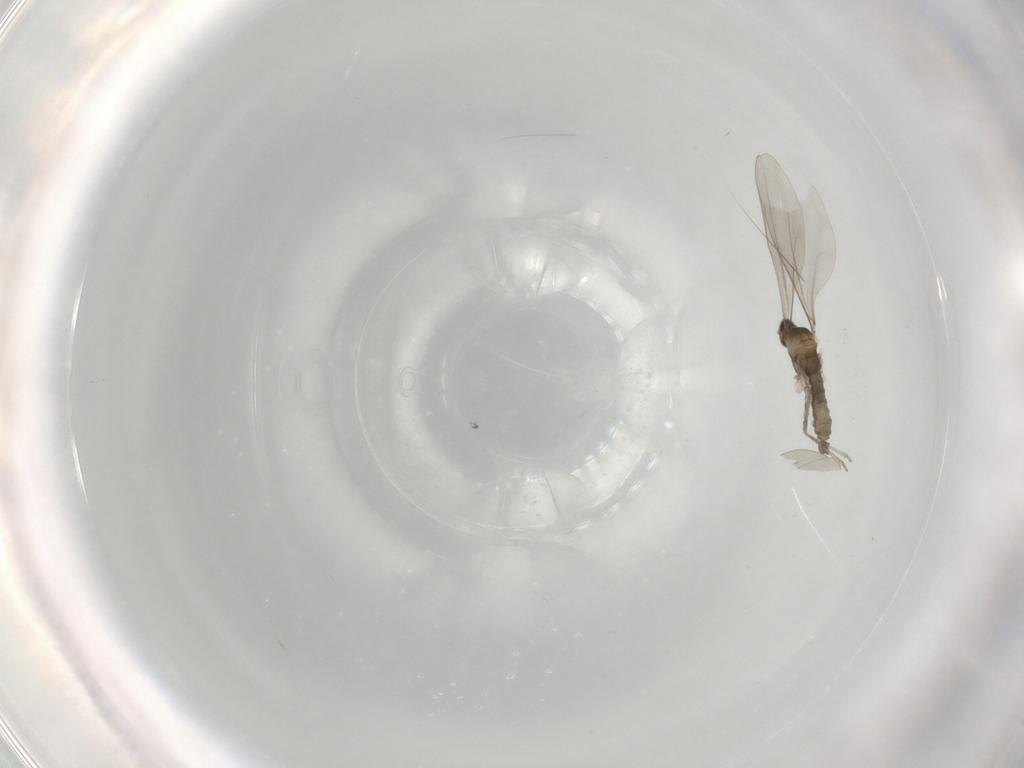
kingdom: Animalia
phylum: Arthropoda
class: Insecta
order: Diptera
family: Cecidomyiidae
